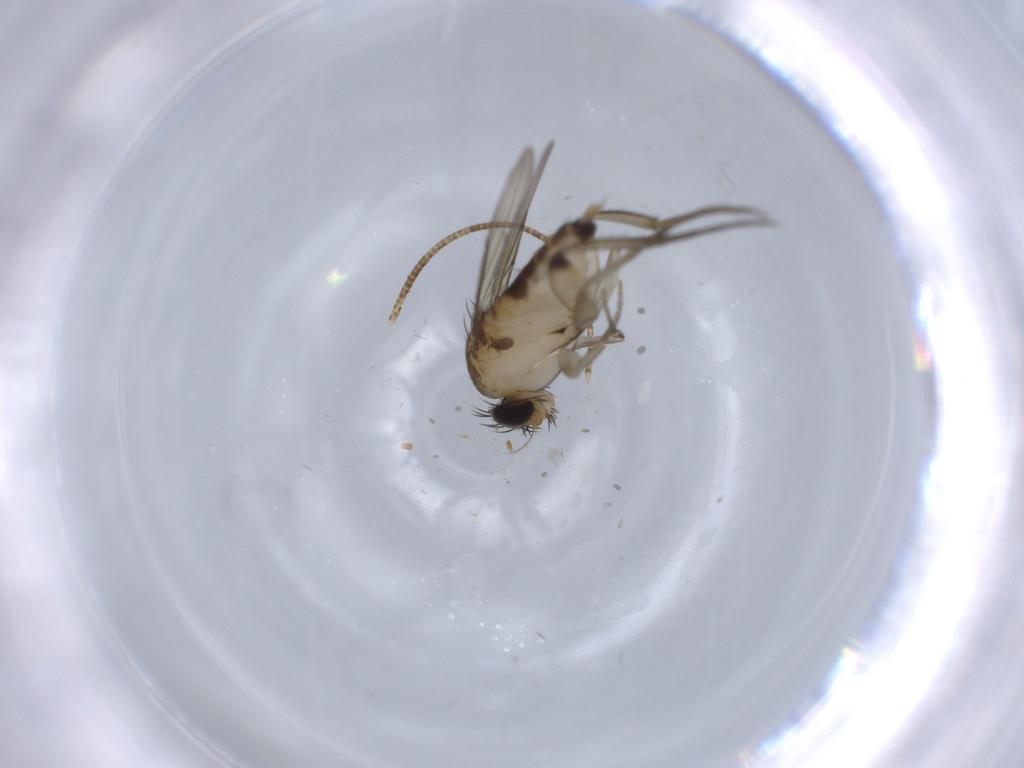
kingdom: Animalia
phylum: Arthropoda
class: Insecta
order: Diptera
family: Phoridae
